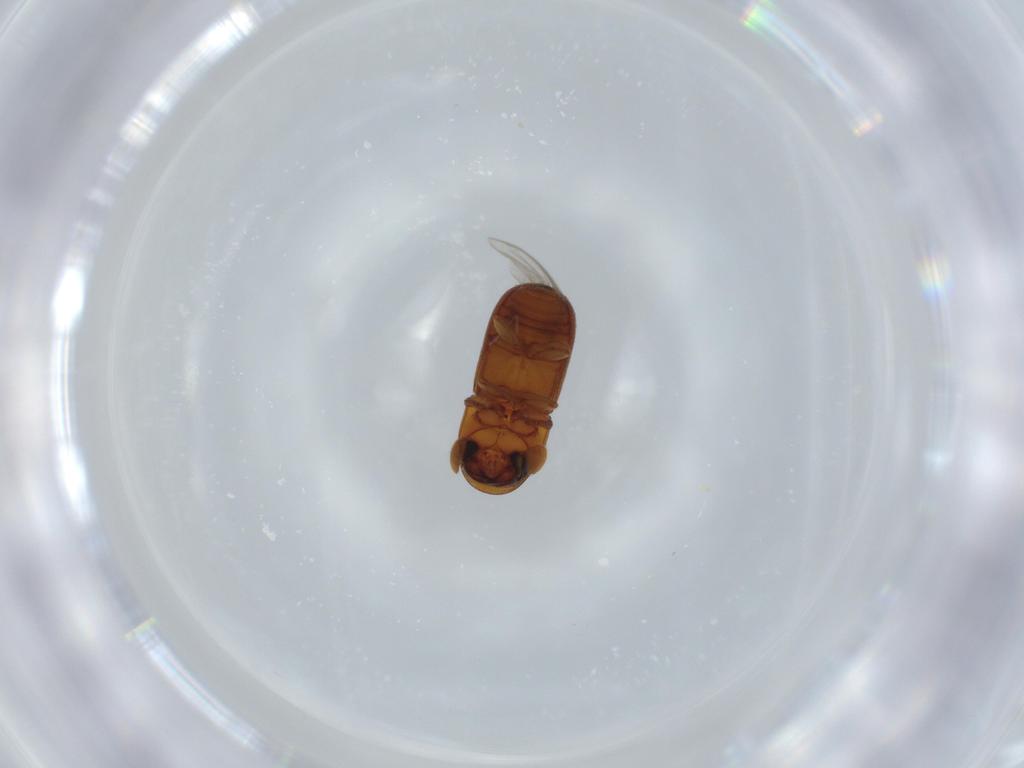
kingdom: Animalia
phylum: Arthropoda
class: Insecta
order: Coleoptera
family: Curculionidae
